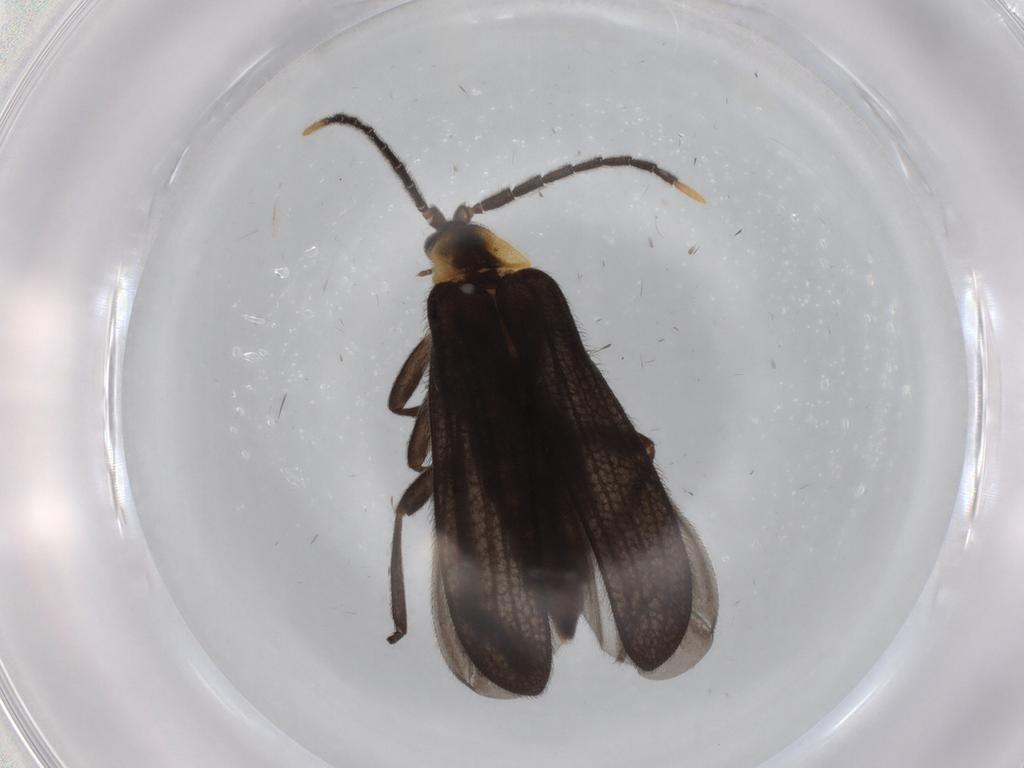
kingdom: Animalia
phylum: Arthropoda
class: Insecta
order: Coleoptera
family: Lycidae
